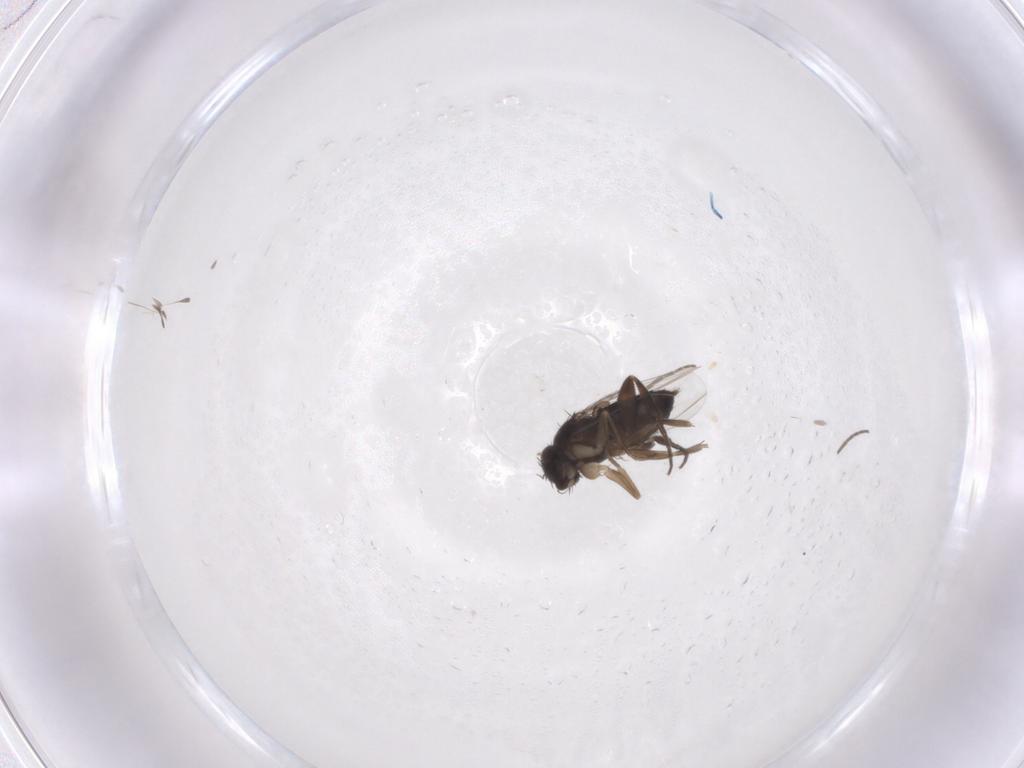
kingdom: Animalia
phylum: Arthropoda
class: Insecta
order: Diptera
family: Phoridae
